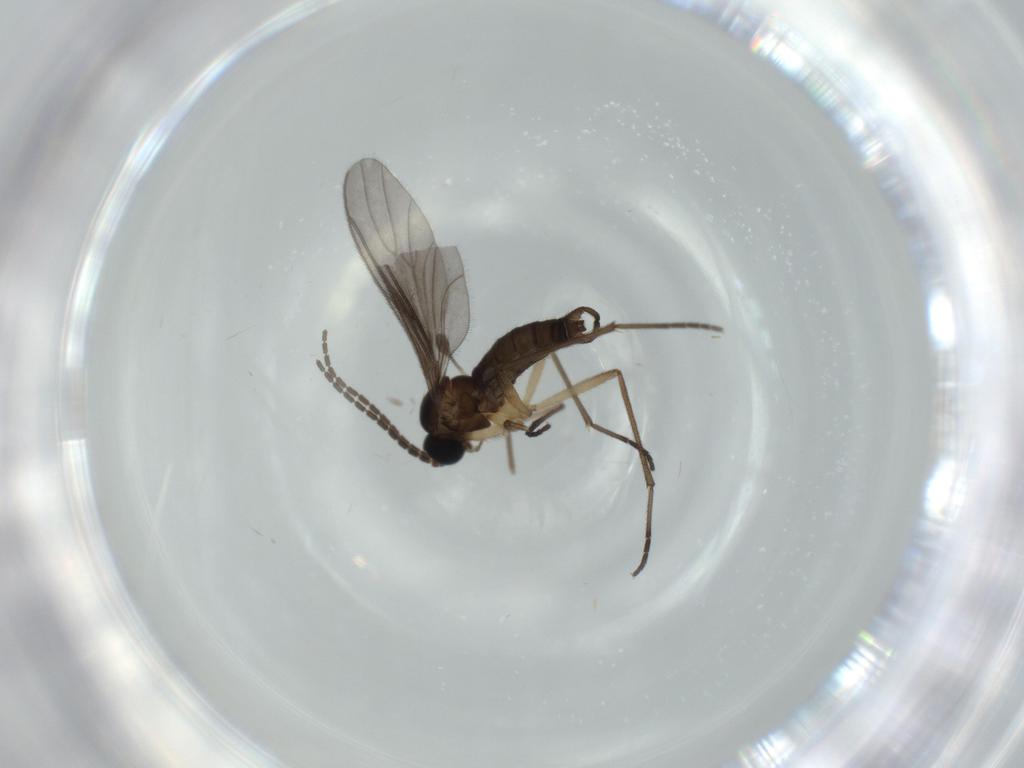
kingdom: Animalia
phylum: Arthropoda
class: Insecta
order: Diptera
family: Sciaridae
